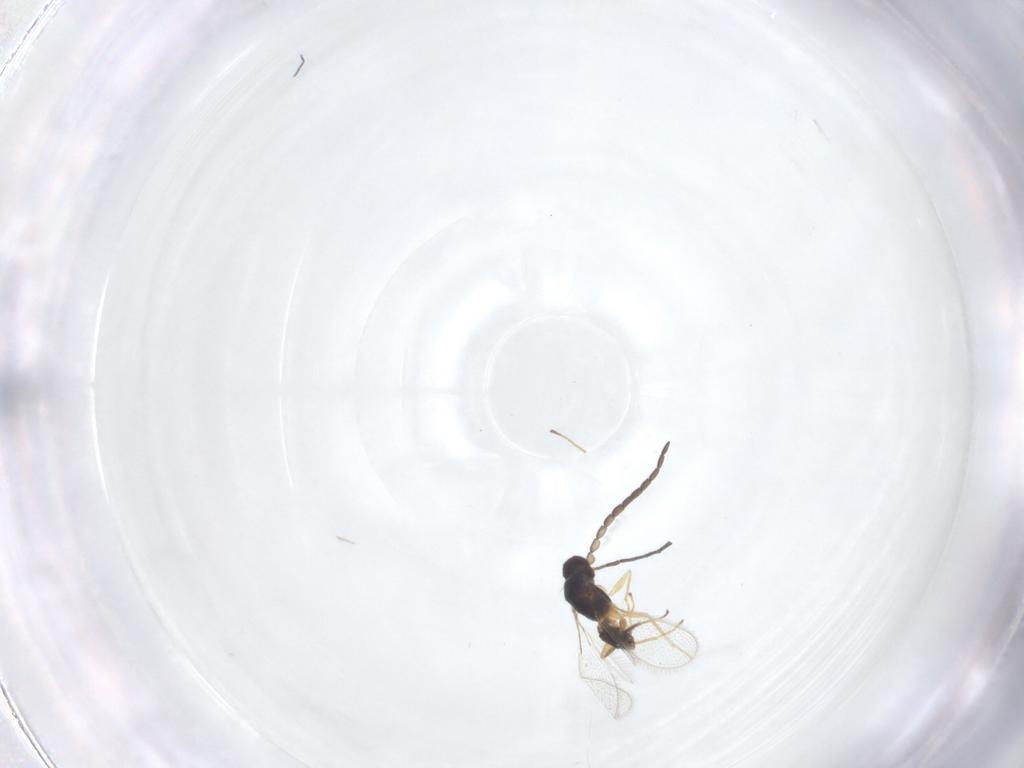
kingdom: Animalia
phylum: Arthropoda
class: Insecta
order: Hymenoptera
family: Mymaridae
